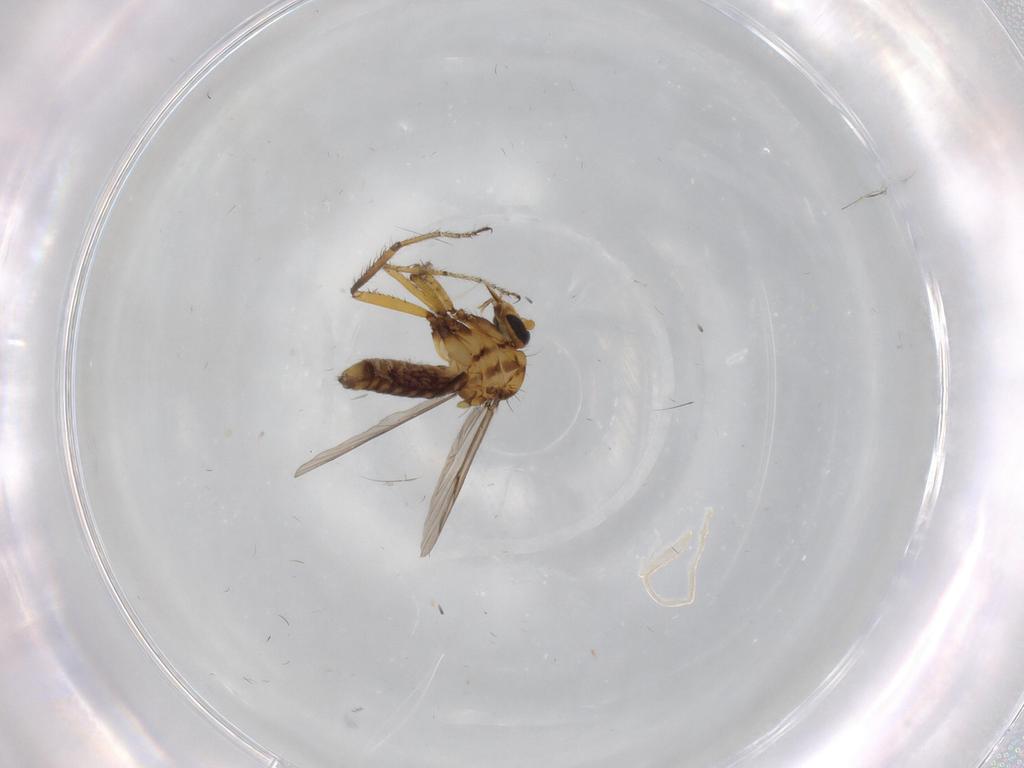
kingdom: Animalia
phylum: Arthropoda
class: Insecta
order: Diptera
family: Ceratopogonidae
